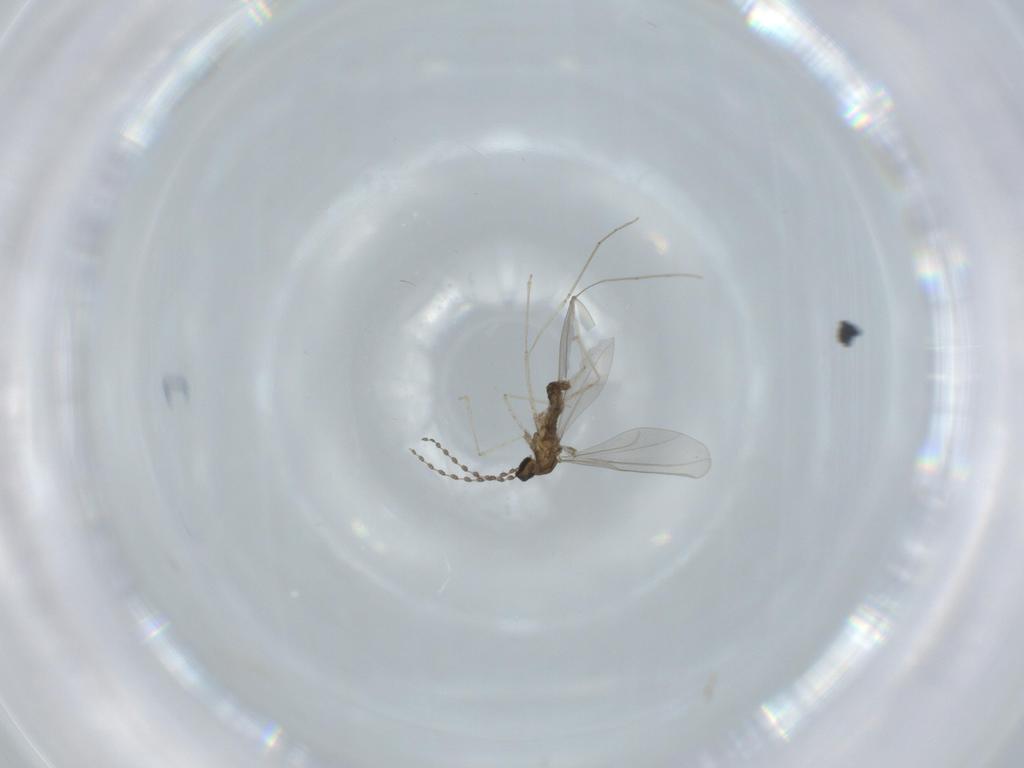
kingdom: Animalia
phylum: Arthropoda
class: Insecta
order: Diptera
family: Cecidomyiidae
